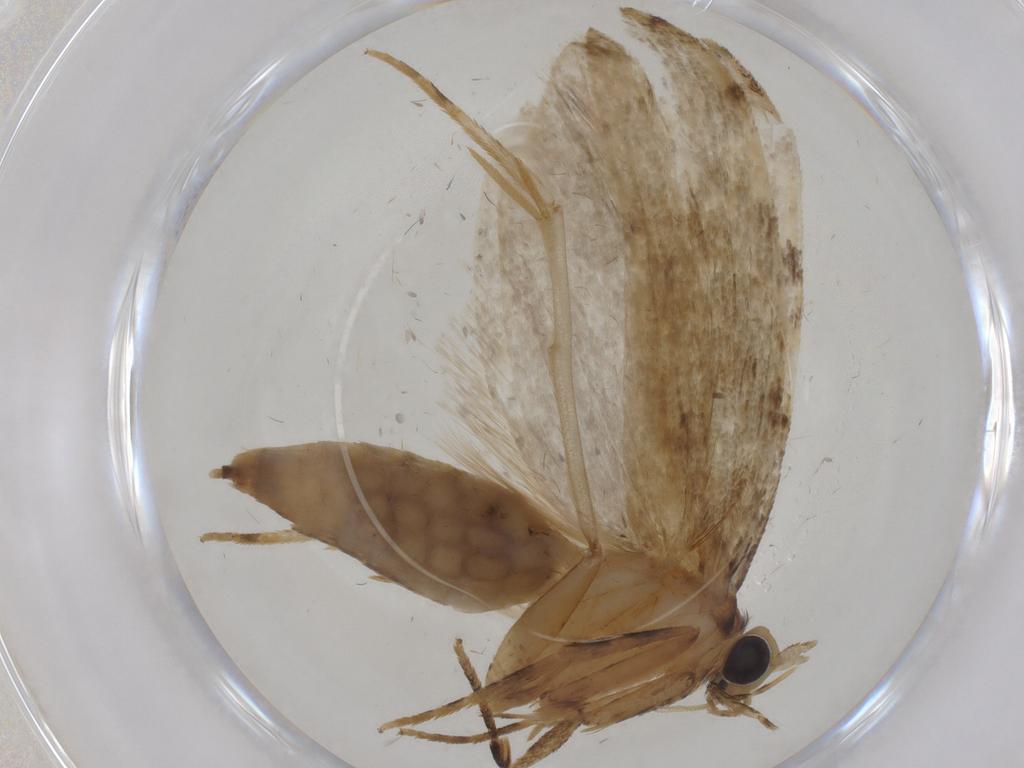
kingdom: Animalia
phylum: Arthropoda
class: Insecta
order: Lepidoptera
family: Tineidae
